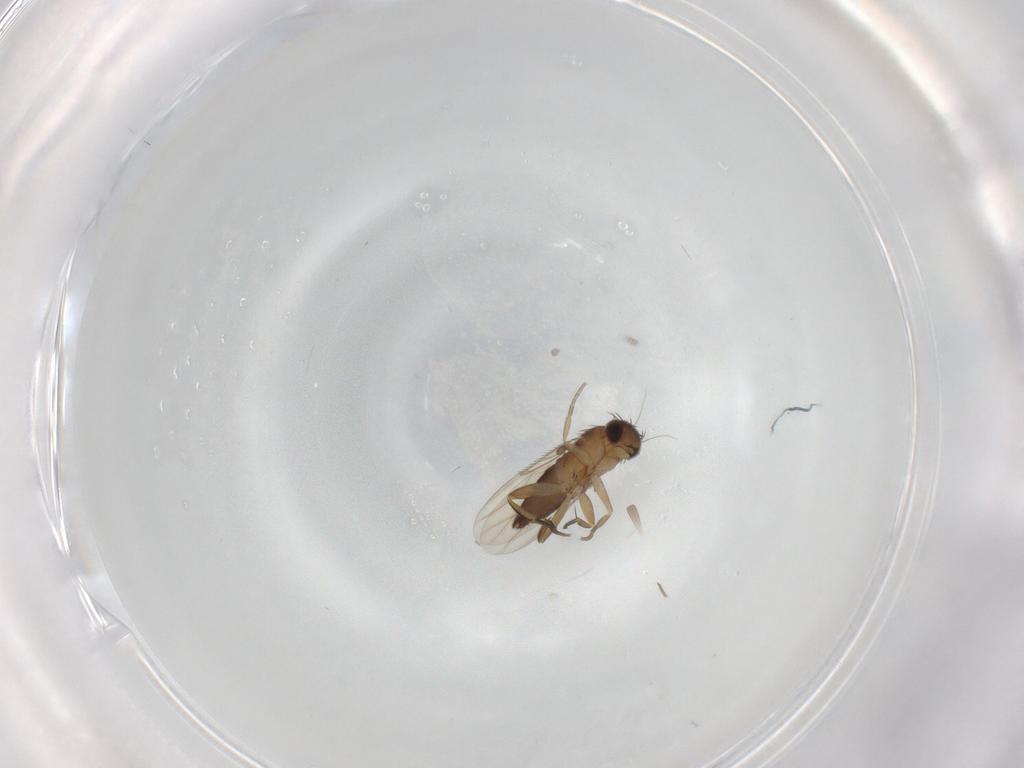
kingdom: Animalia
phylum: Arthropoda
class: Insecta
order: Diptera
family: Phoridae
